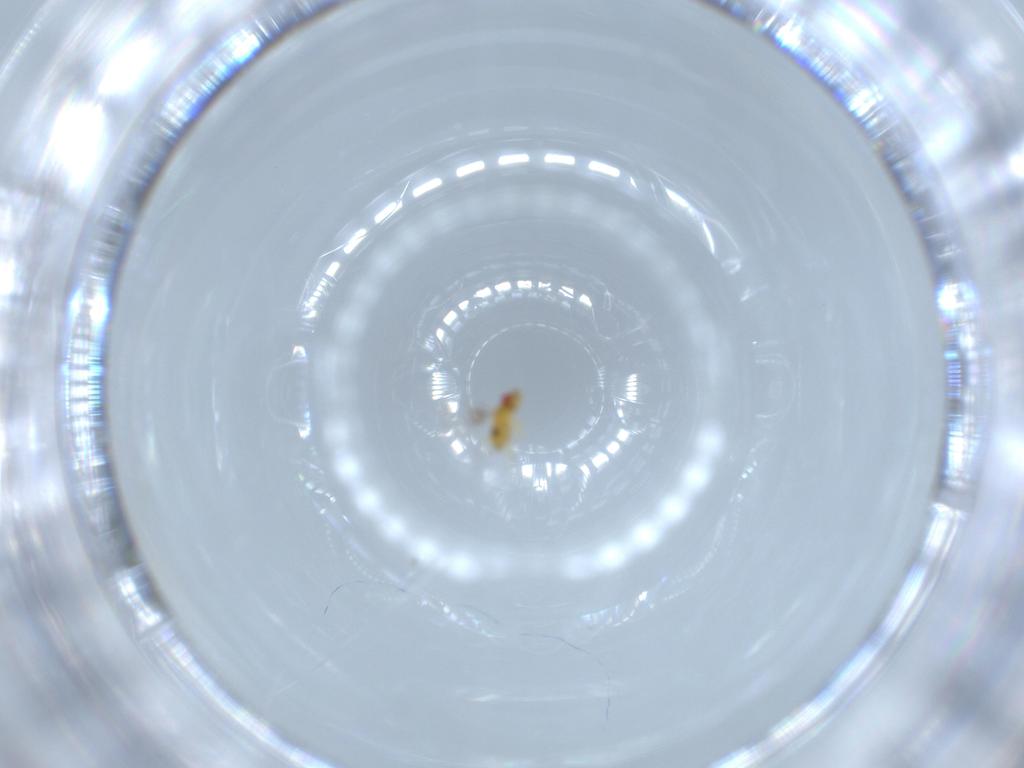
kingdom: Animalia
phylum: Arthropoda
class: Insecta
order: Hymenoptera
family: Trichogrammatidae
